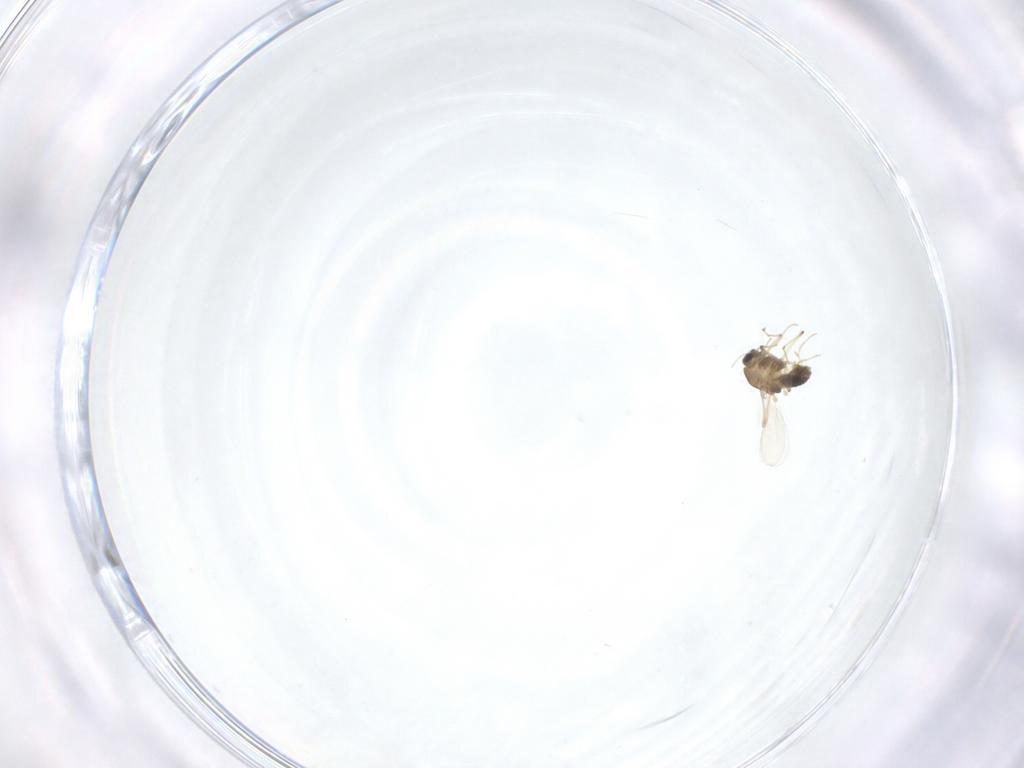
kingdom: Animalia
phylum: Arthropoda
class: Insecta
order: Diptera
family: Chironomidae
